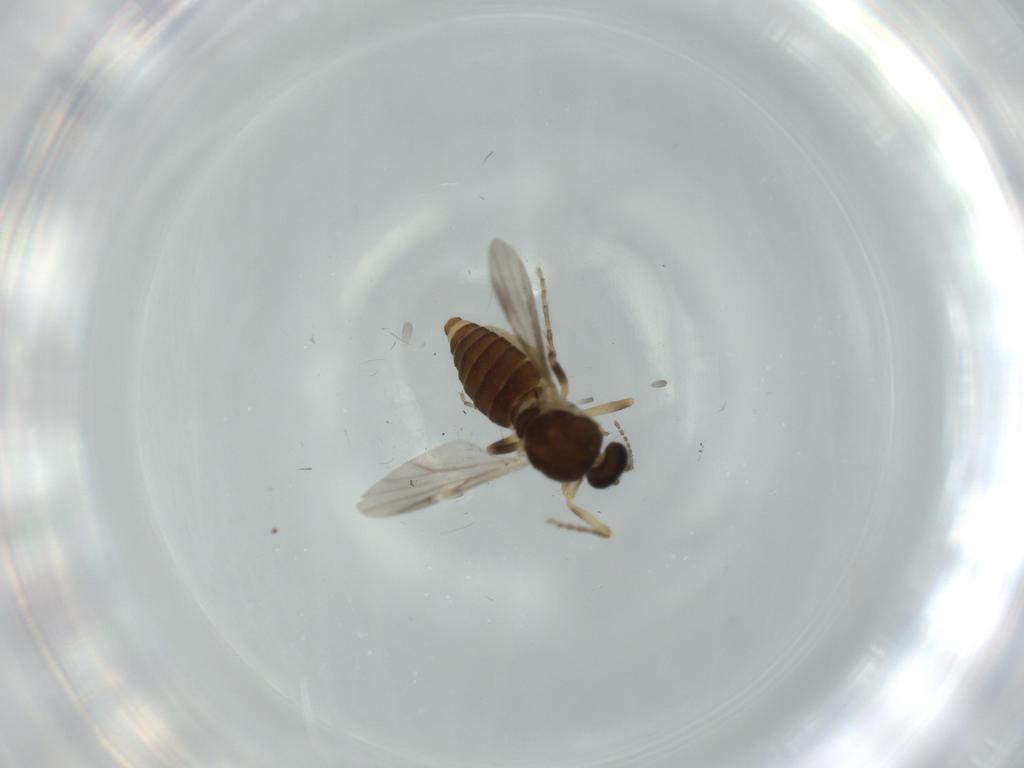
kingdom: Animalia
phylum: Arthropoda
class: Insecta
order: Diptera
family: Ceratopogonidae
